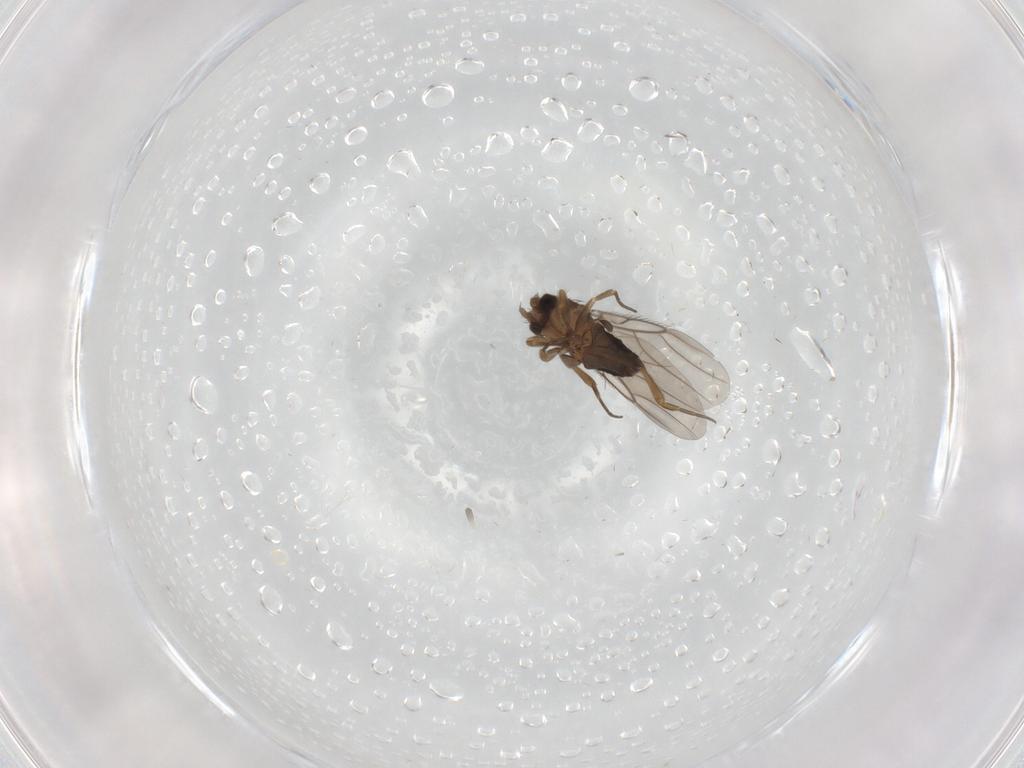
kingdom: Animalia
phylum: Arthropoda
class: Insecta
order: Diptera
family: Phoridae
